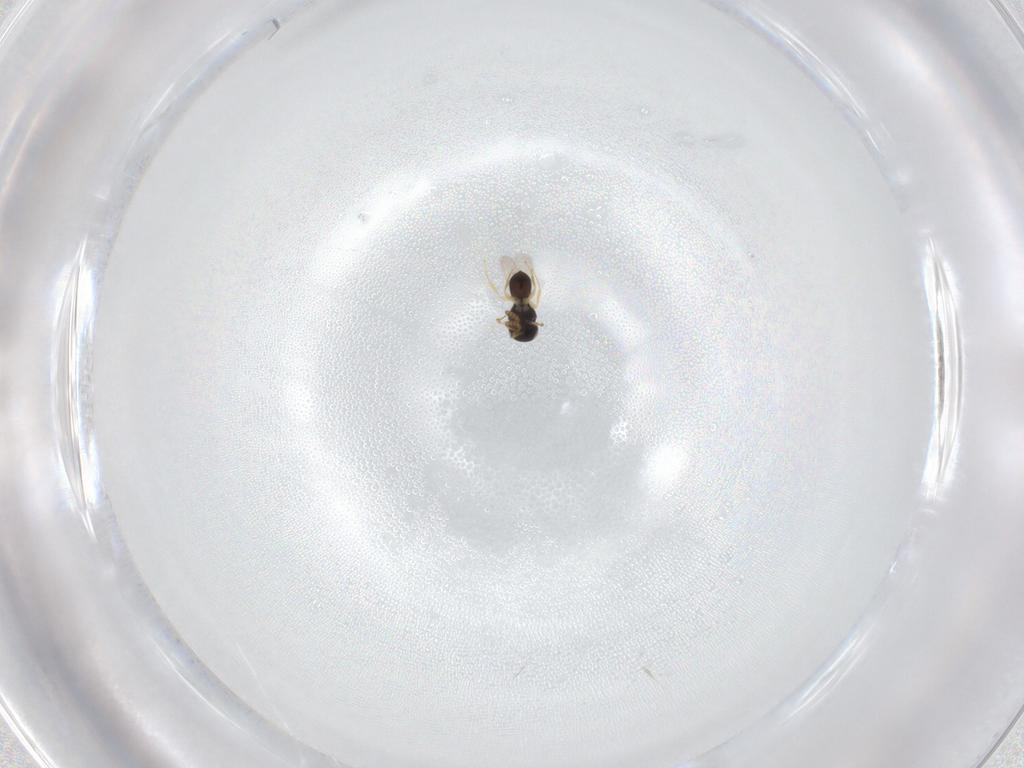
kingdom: Animalia
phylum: Arthropoda
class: Insecta
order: Hymenoptera
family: Scelionidae
